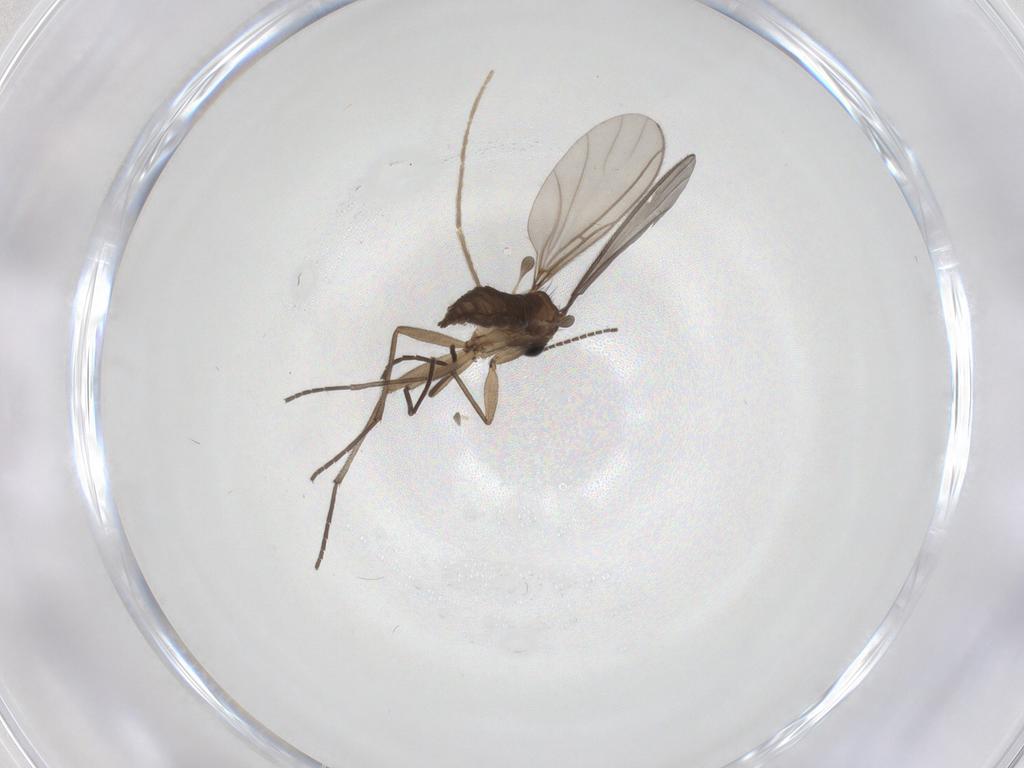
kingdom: Animalia
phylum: Arthropoda
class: Insecta
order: Diptera
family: Sciaridae
